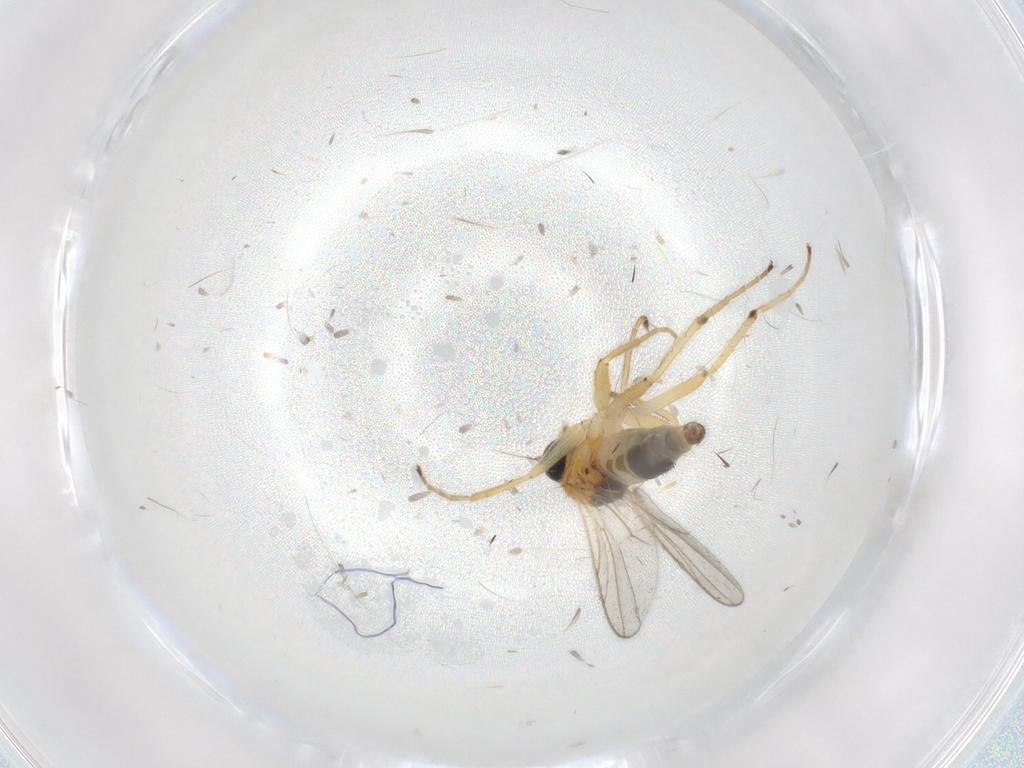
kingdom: Animalia
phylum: Arthropoda
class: Insecta
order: Diptera
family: Hybotidae
